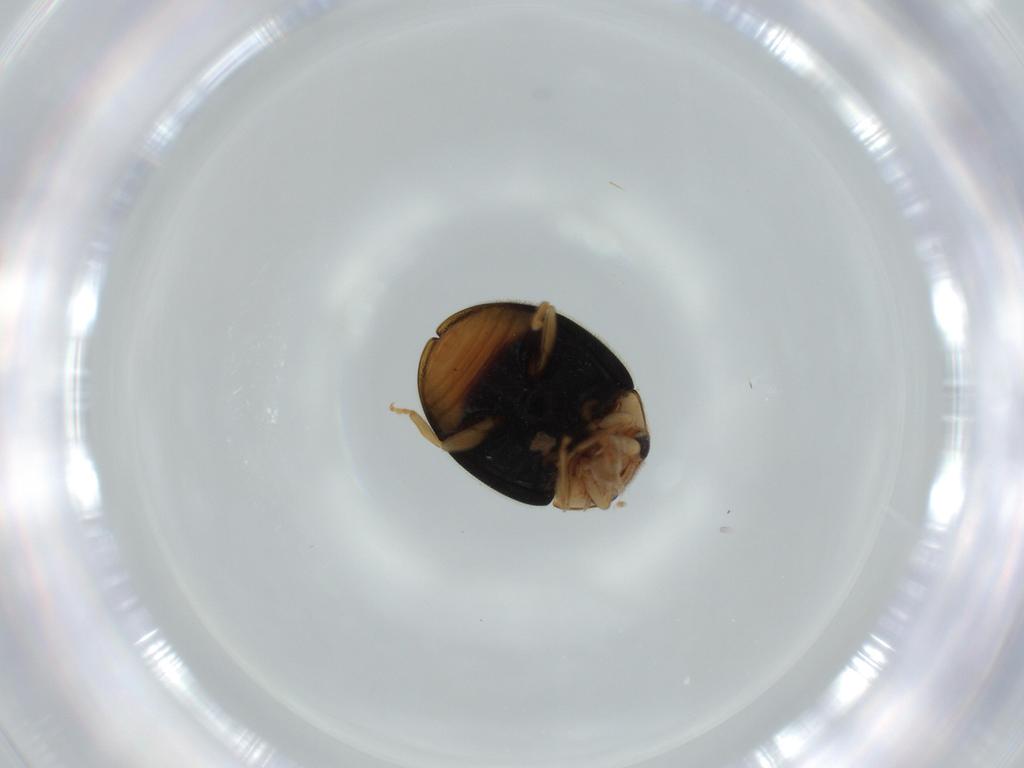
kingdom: Animalia
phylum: Arthropoda
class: Insecta
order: Coleoptera
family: Coccinellidae
